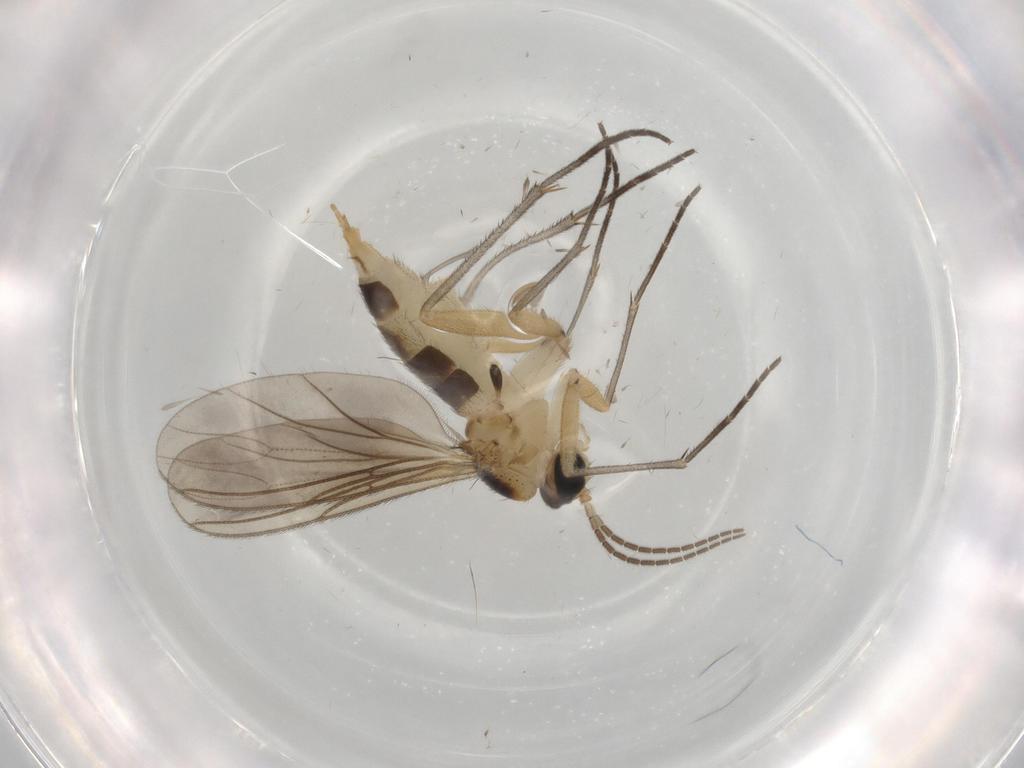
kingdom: Animalia
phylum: Arthropoda
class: Insecta
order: Diptera
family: Sciaridae
